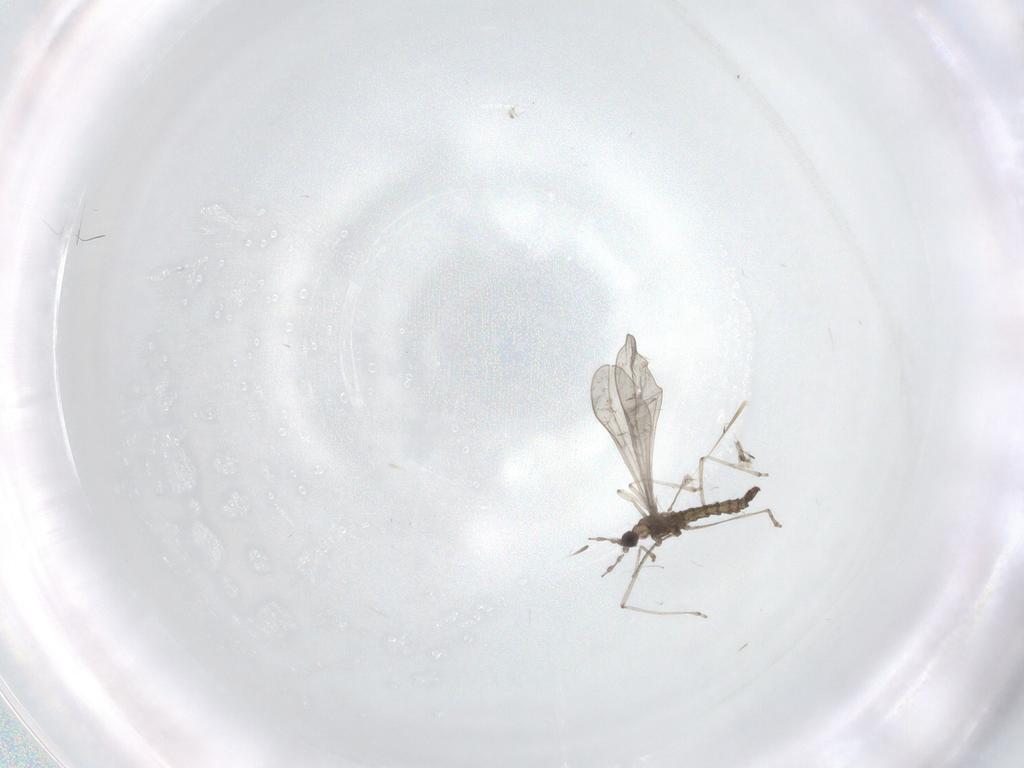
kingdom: Animalia
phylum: Arthropoda
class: Insecta
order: Diptera
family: Cecidomyiidae
